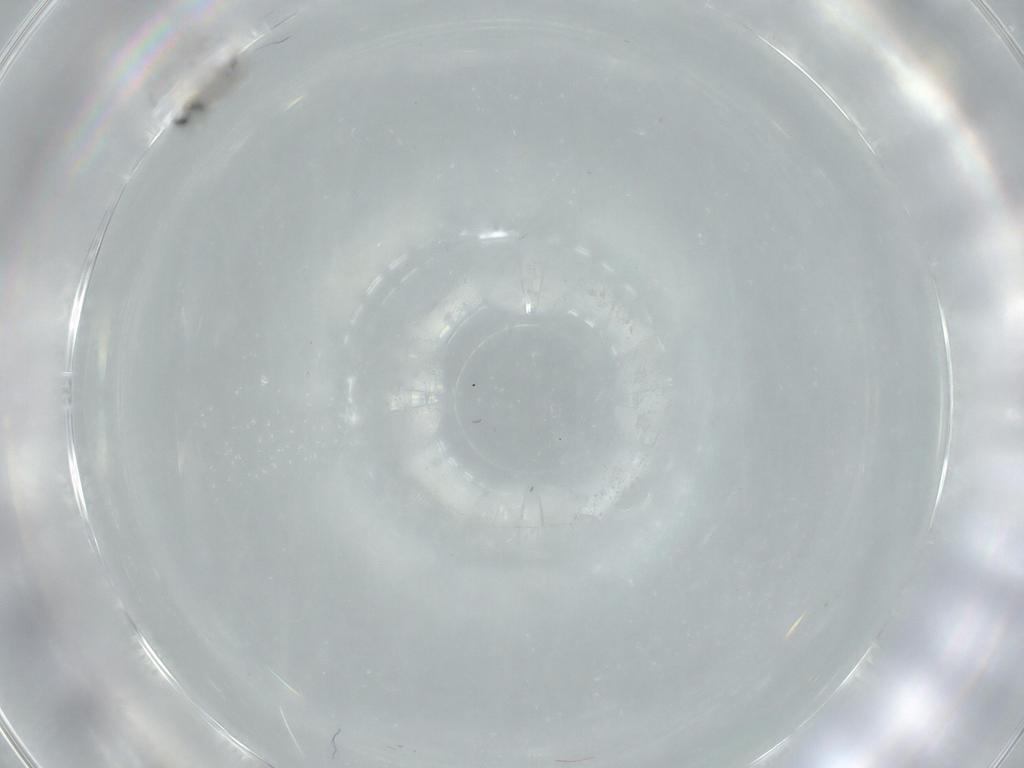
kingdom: Animalia
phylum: Arthropoda
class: Insecta
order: Diptera
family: Cecidomyiidae
